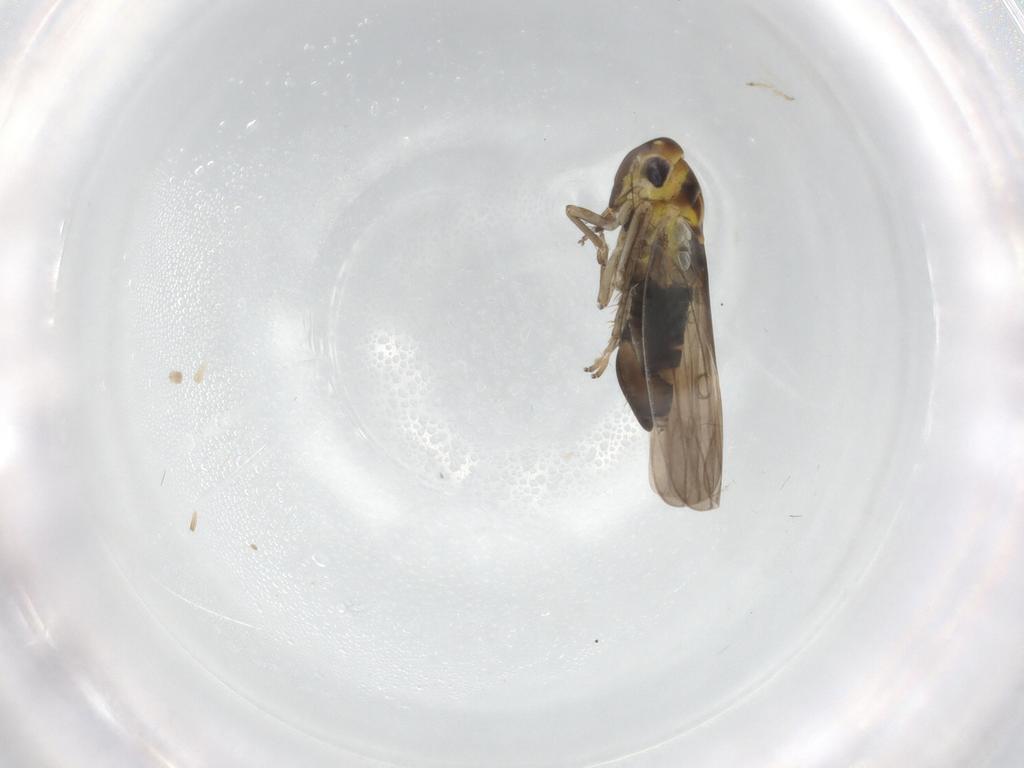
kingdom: Animalia
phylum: Arthropoda
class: Insecta
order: Hemiptera
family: Cicadellidae
